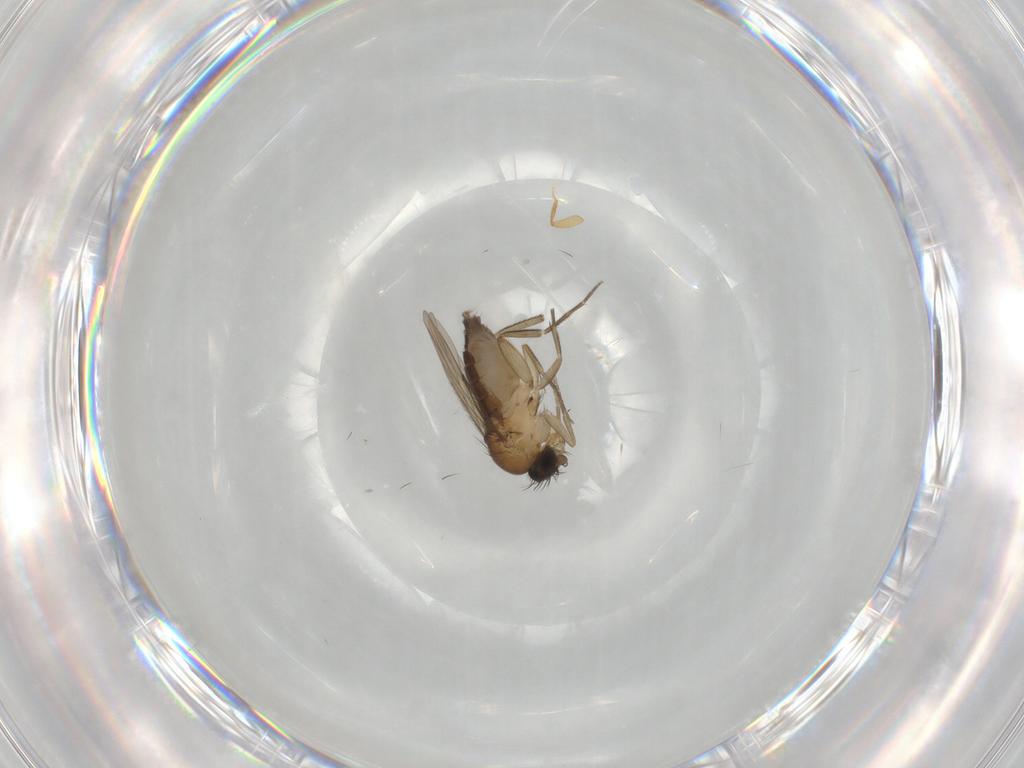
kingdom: Animalia
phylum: Arthropoda
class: Insecta
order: Diptera
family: Phoridae
